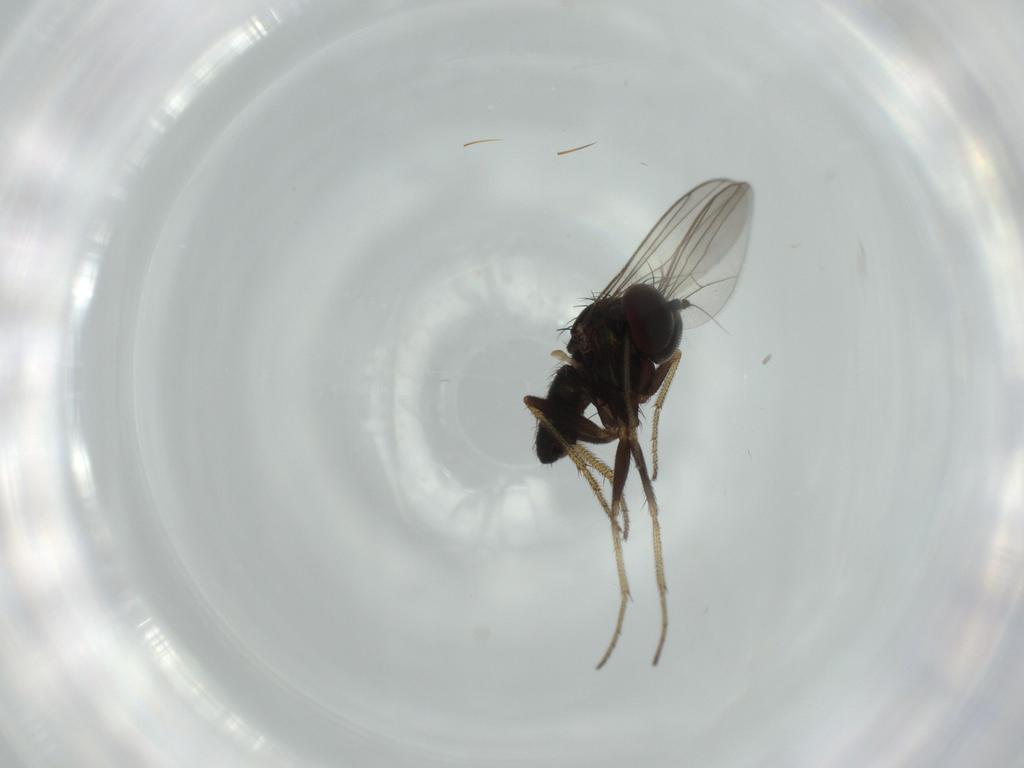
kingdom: Animalia
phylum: Arthropoda
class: Insecta
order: Diptera
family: Cecidomyiidae
